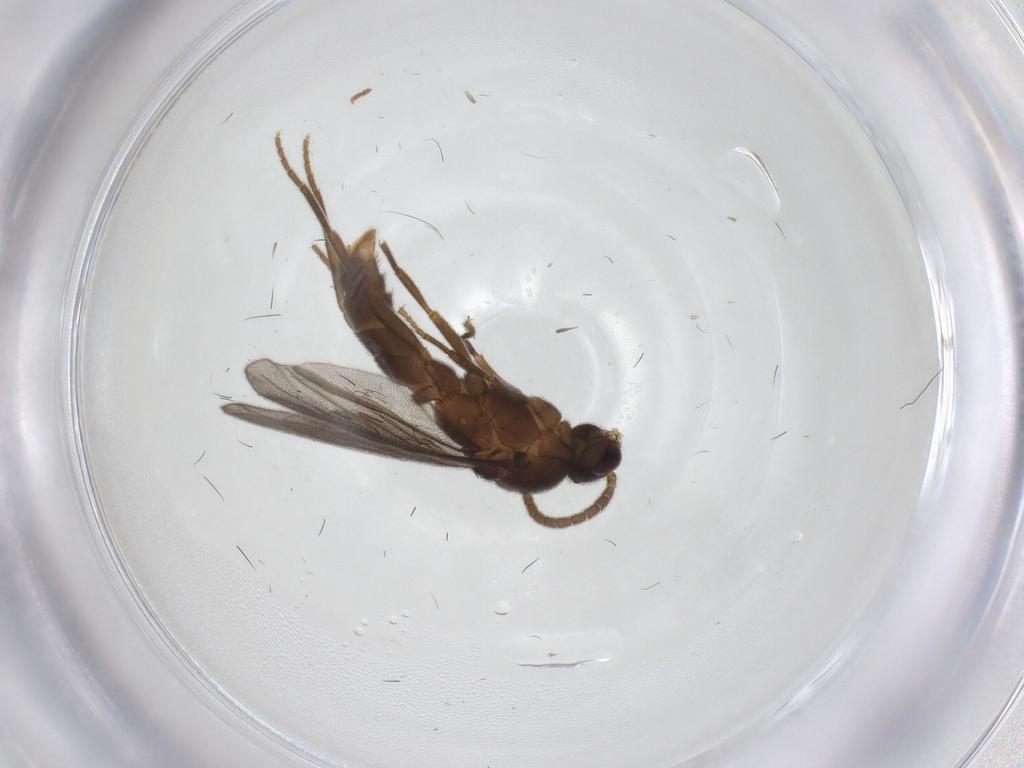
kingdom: Animalia
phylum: Arthropoda
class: Insecta
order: Hymenoptera
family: Formicidae
